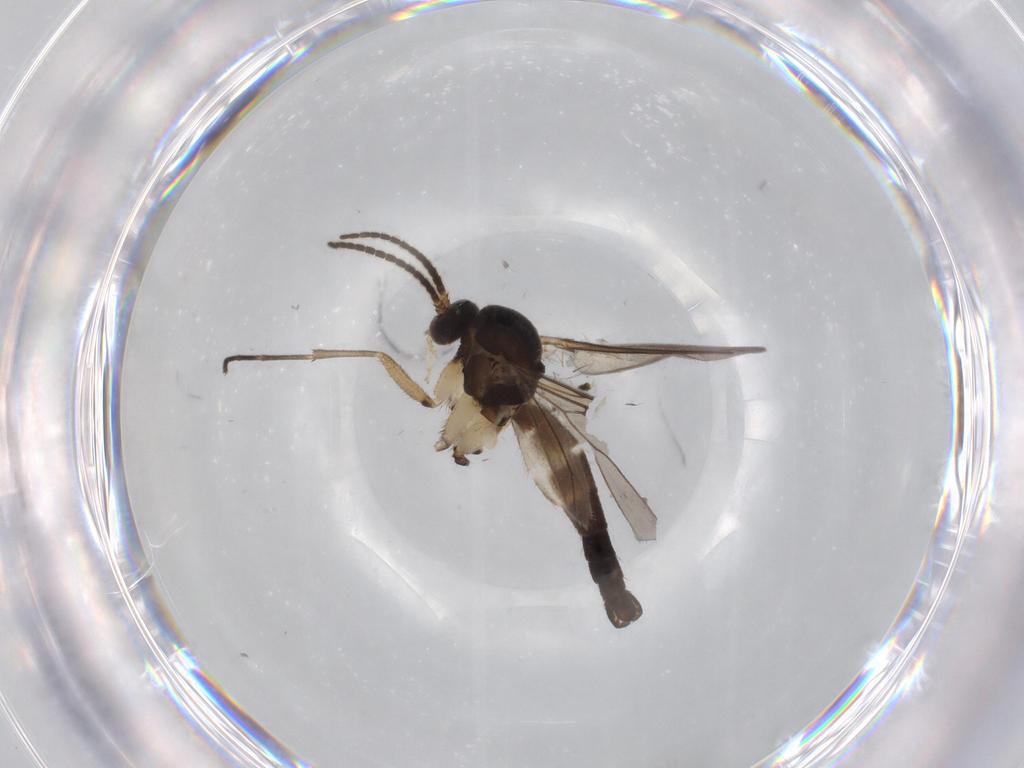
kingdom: Animalia
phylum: Arthropoda
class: Insecta
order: Diptera
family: Mycetophilidae
